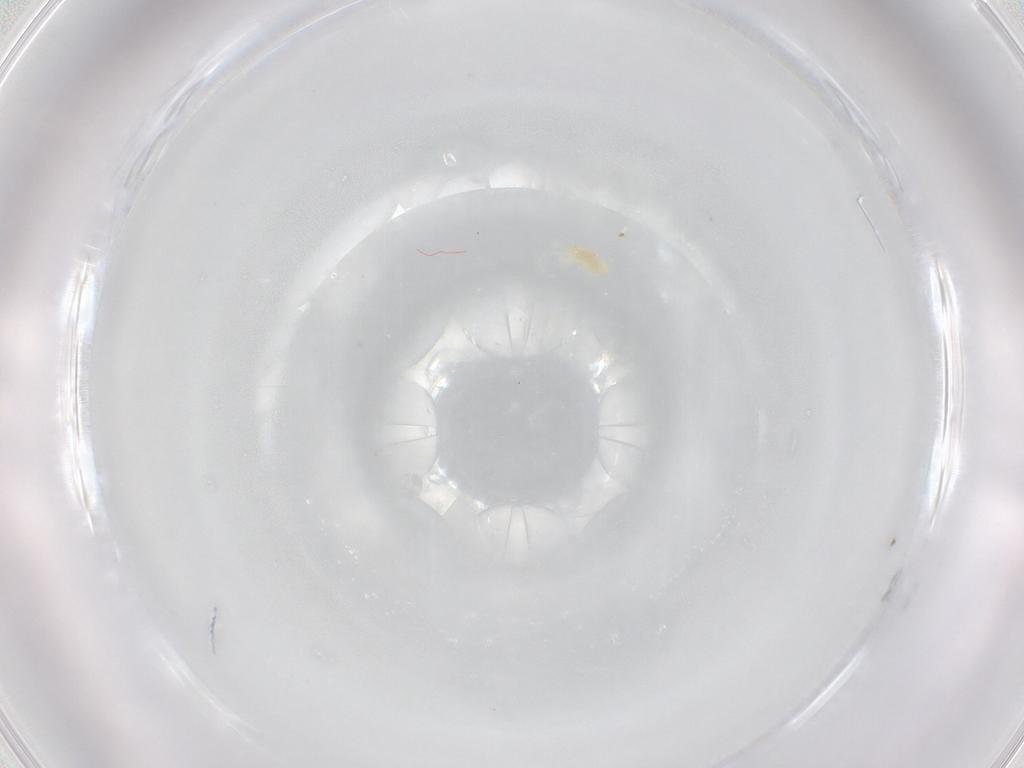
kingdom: Animalia
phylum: Arthropoda
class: Arachnida
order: Trombidiformes
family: Eupodidae
